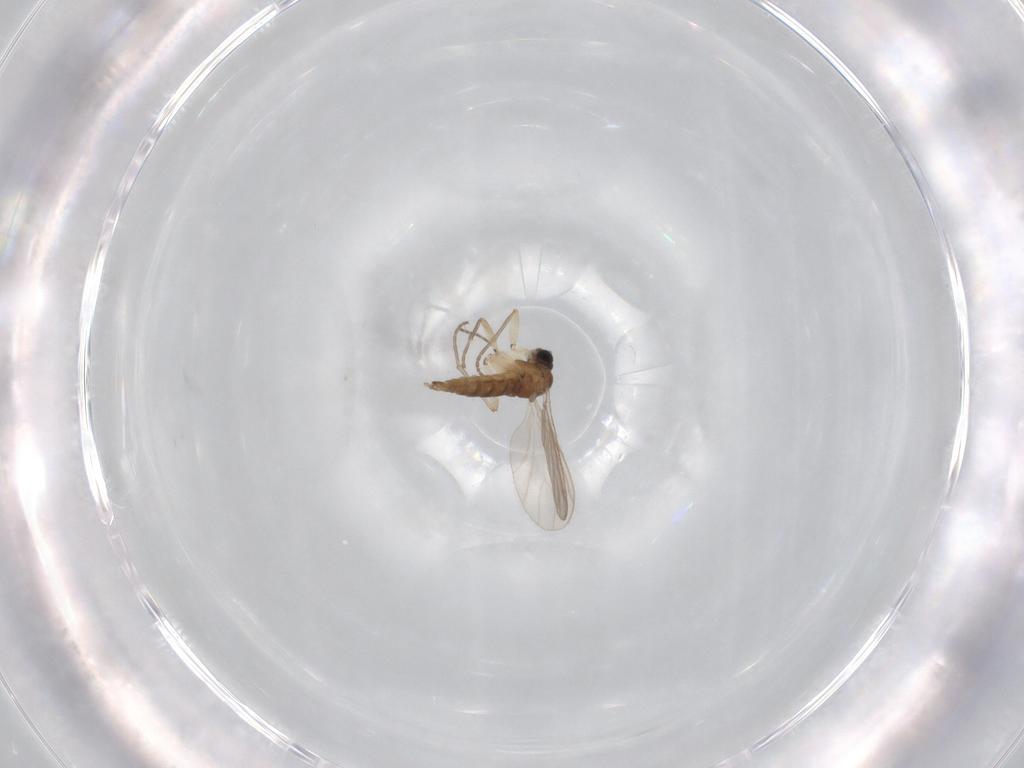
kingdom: Animalia
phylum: Arthropoda
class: Insecta
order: Diptera
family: Sciaridae
